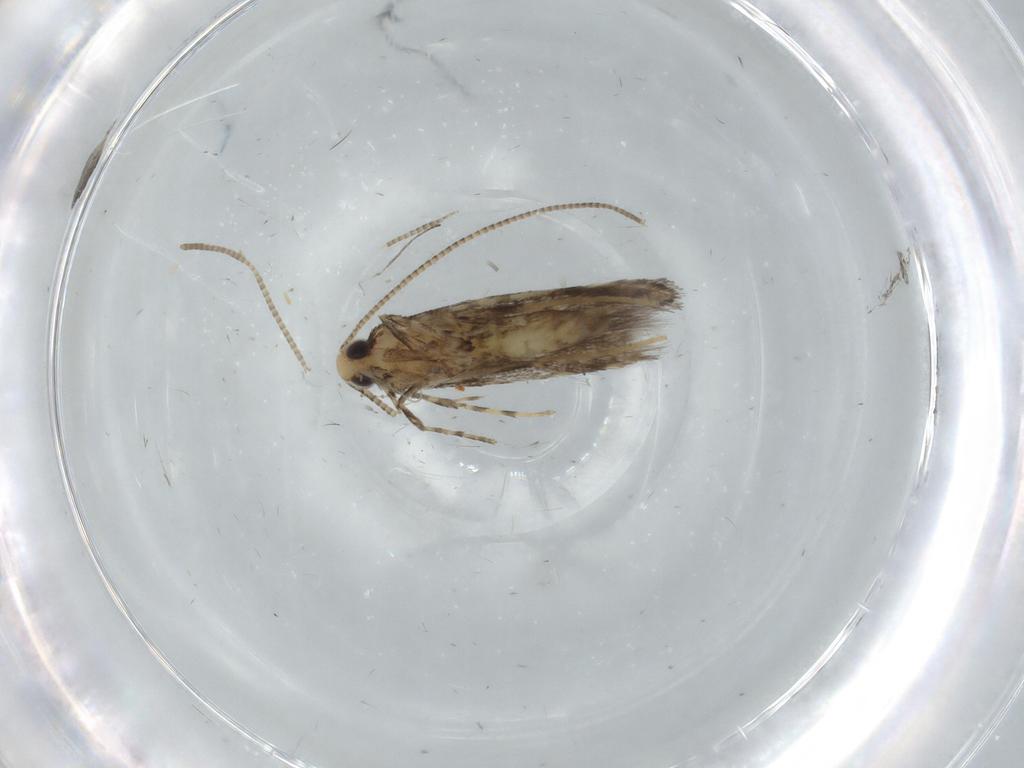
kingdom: Animalia
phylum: Arthropoda
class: Insecta
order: Lepidoptera
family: Gracillariidae
